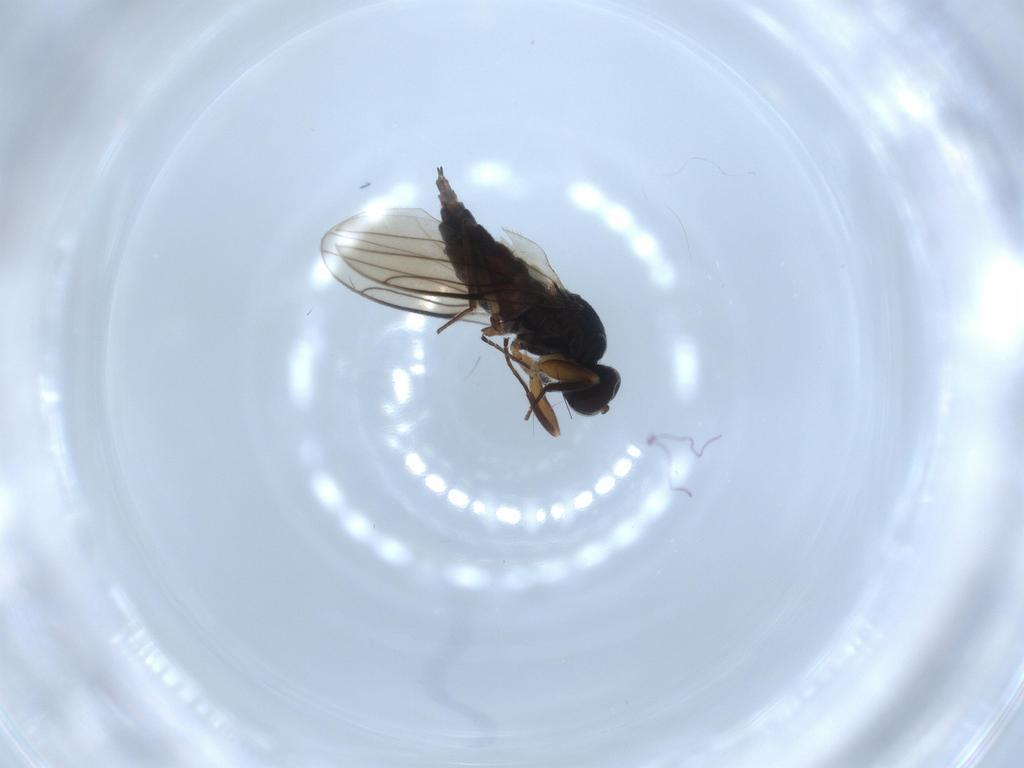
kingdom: Animalia
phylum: Arthropoda
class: Insecta
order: Diptera
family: Hybotidae
